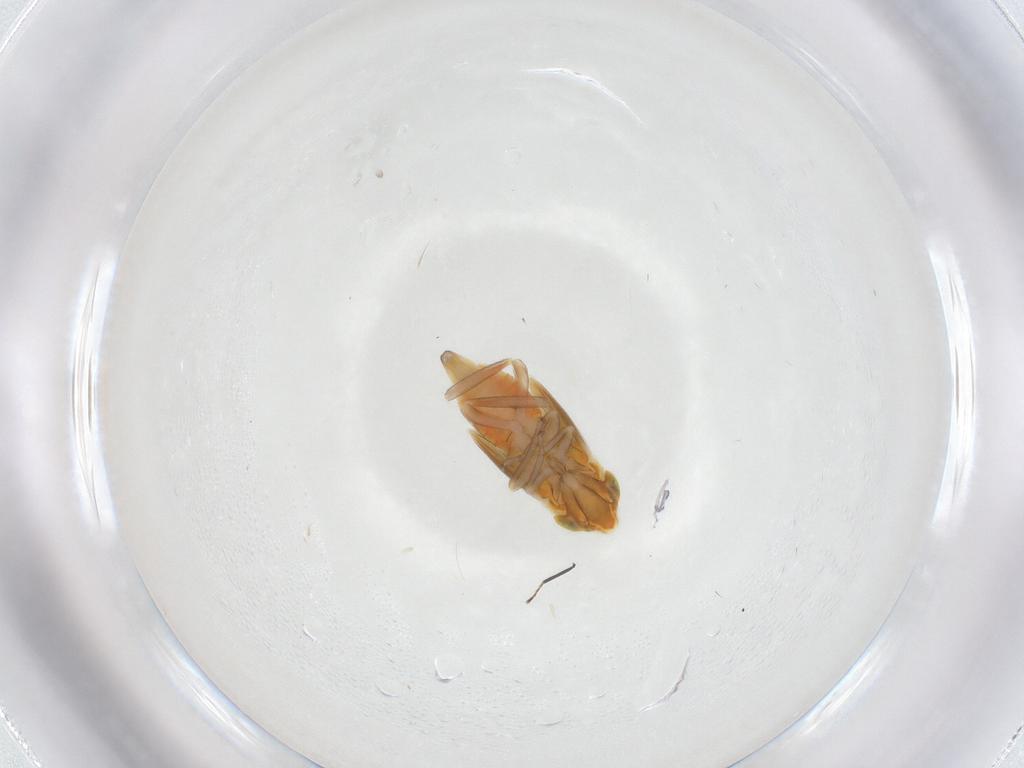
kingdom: Animalia
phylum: Arthropoda
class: Insecta
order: Hemiptera
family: Cicadellidae
